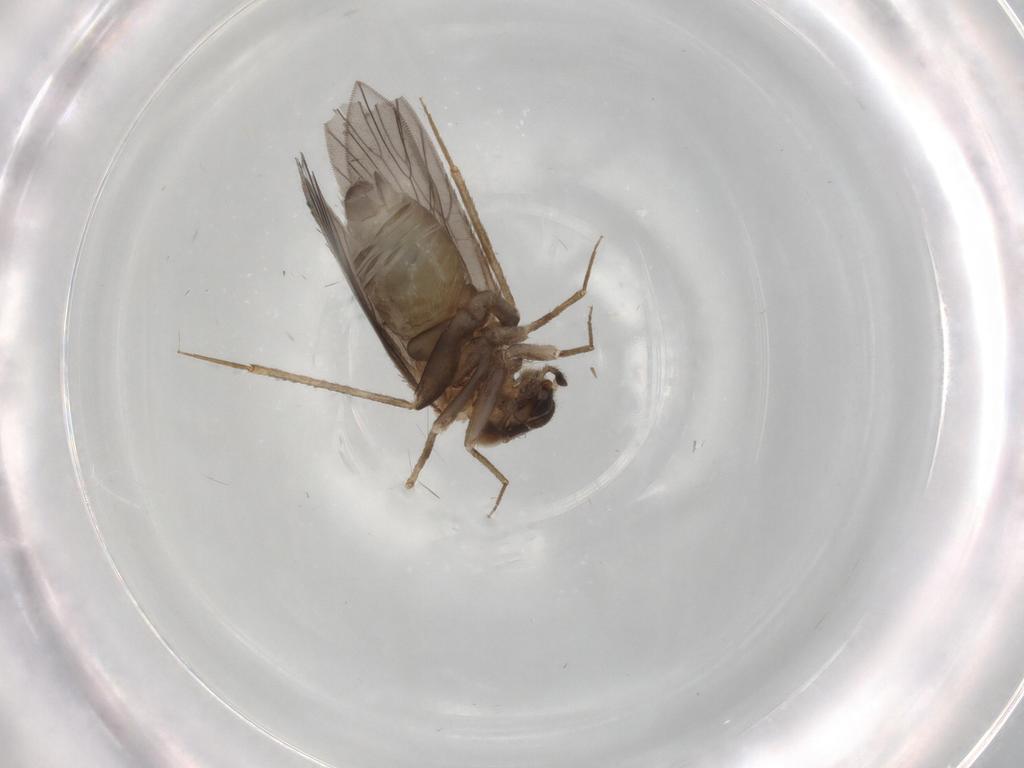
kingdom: Animalia
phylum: Arthropoda
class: Insecta
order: Psocodea
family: Lepidopsocidae
